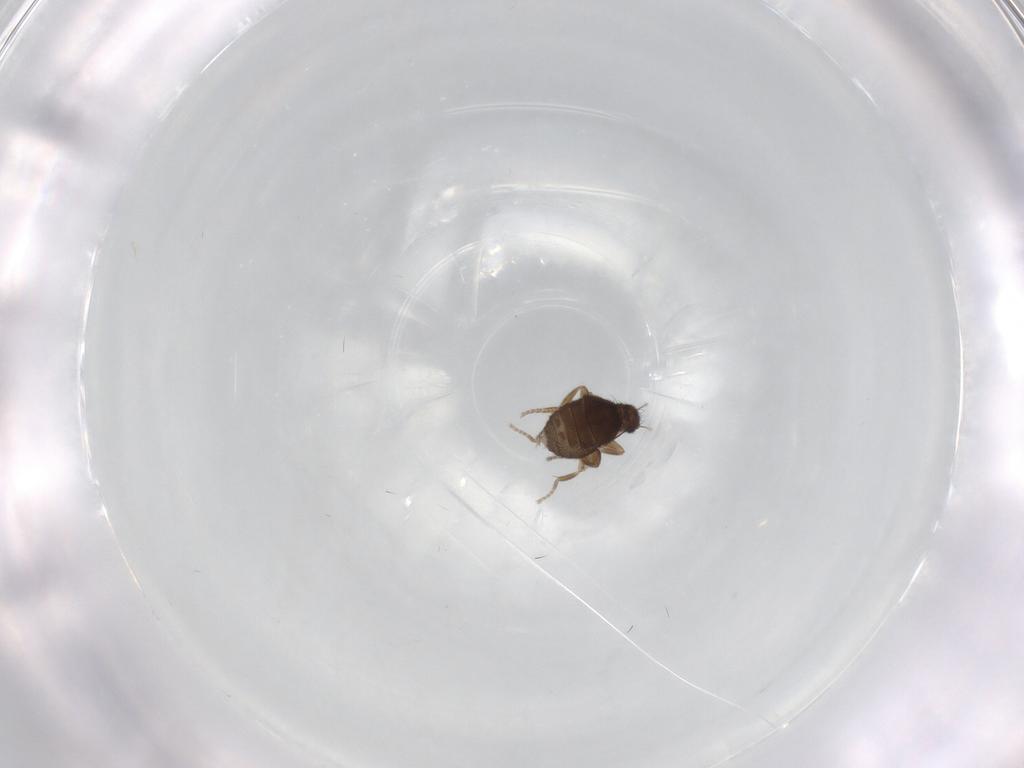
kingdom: Animalia
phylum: Arthropoda
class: Insecta
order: Diptera
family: Phoridae
